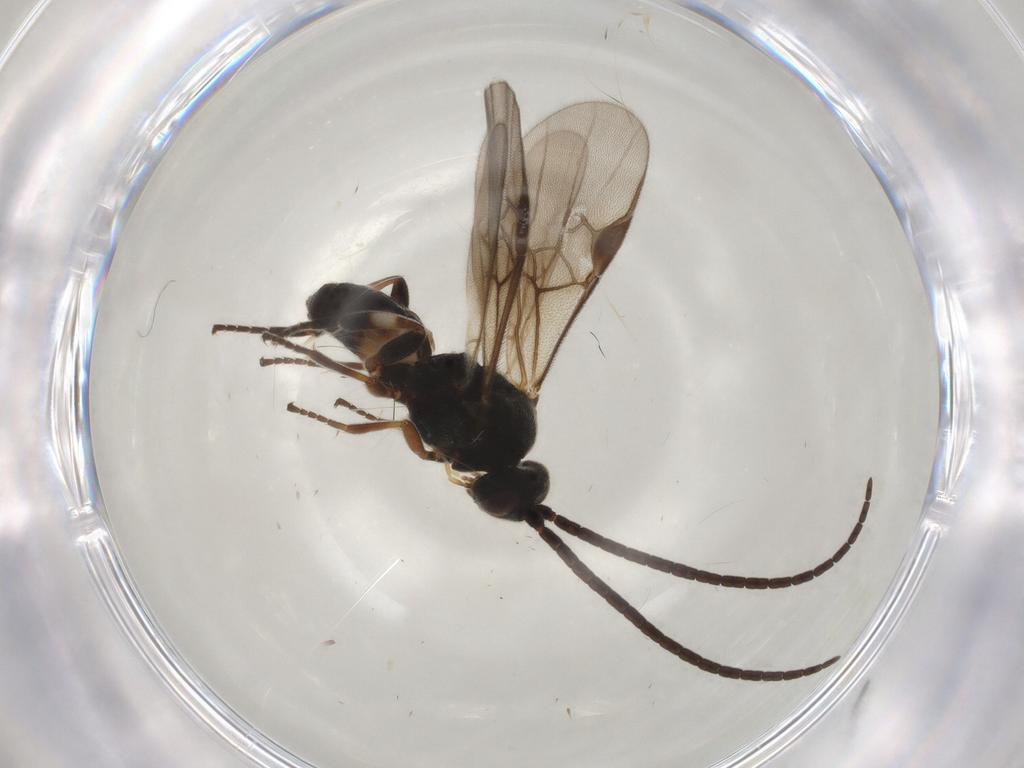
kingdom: Animalia
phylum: Arthropoda
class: Insecta
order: Hymenoptera
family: Braconidae
